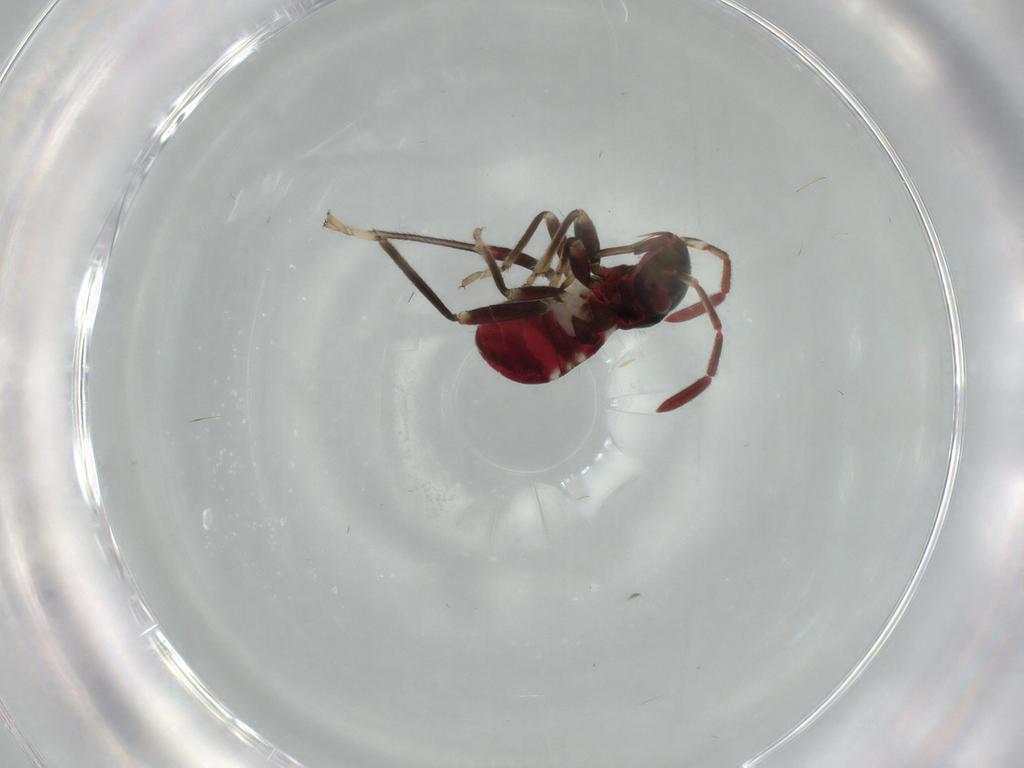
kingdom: Animalia
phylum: Arthropoda
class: Insecta
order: Hemiptera
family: Rhyparochromidae
